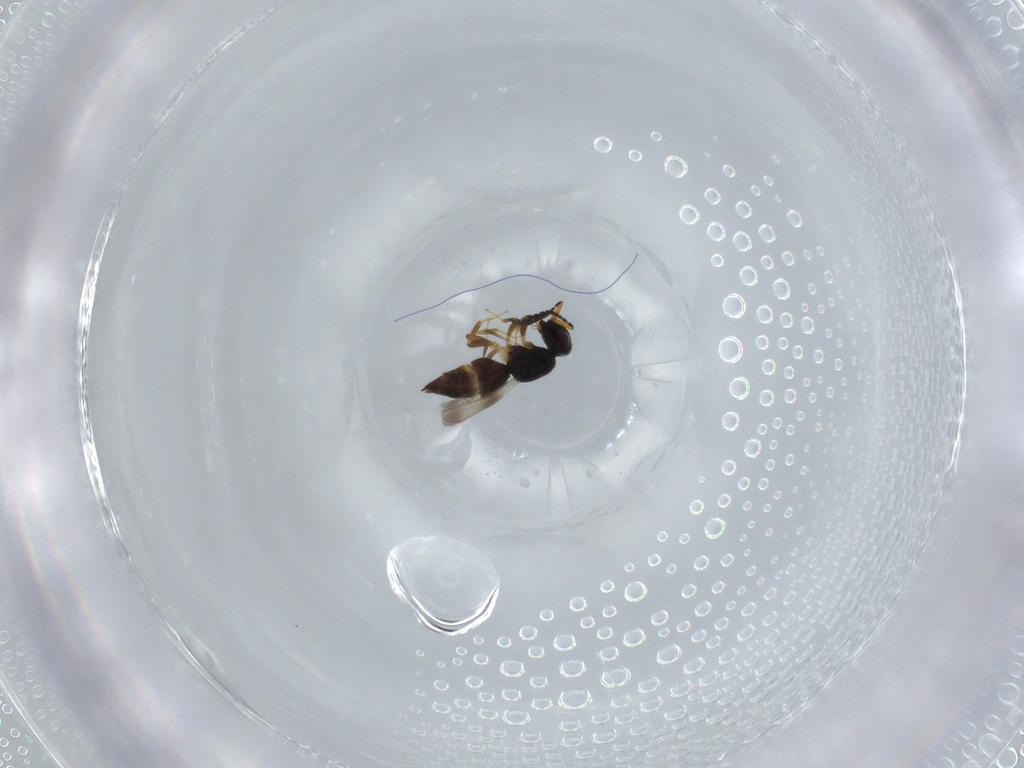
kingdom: Animalia
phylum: Arthropoda
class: Insecta
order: Hymenoptera
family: Ceraphronidae
